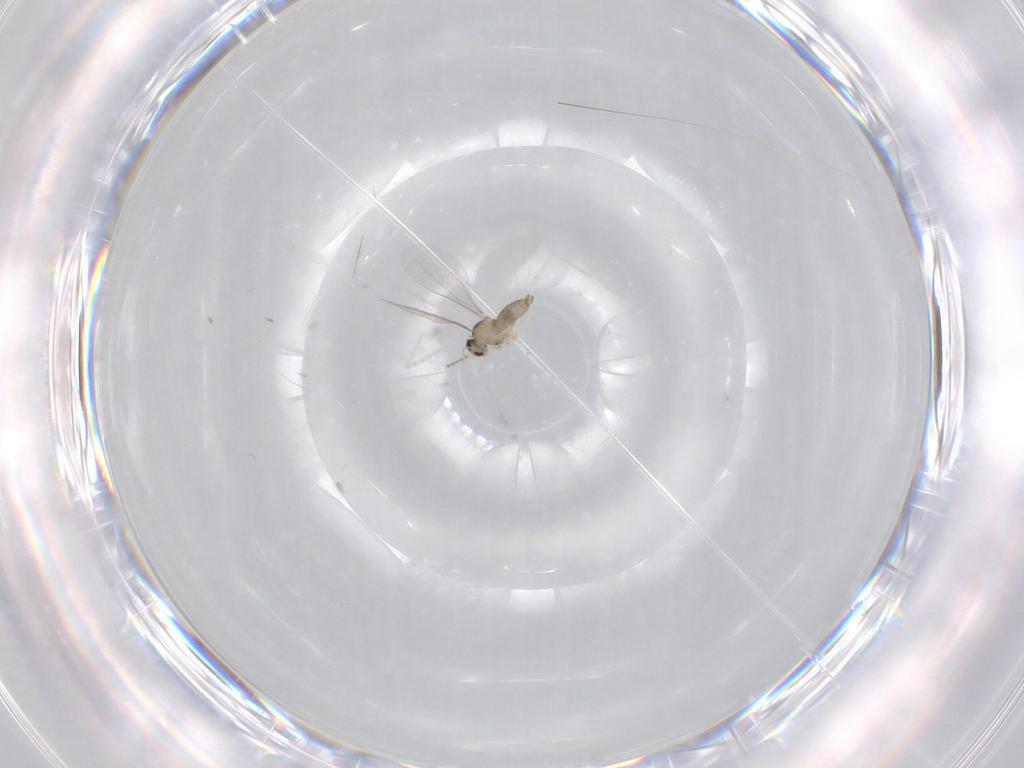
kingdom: Animalia
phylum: Arthropoda
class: Insecta
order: Diptera
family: Cecidomyiidae
